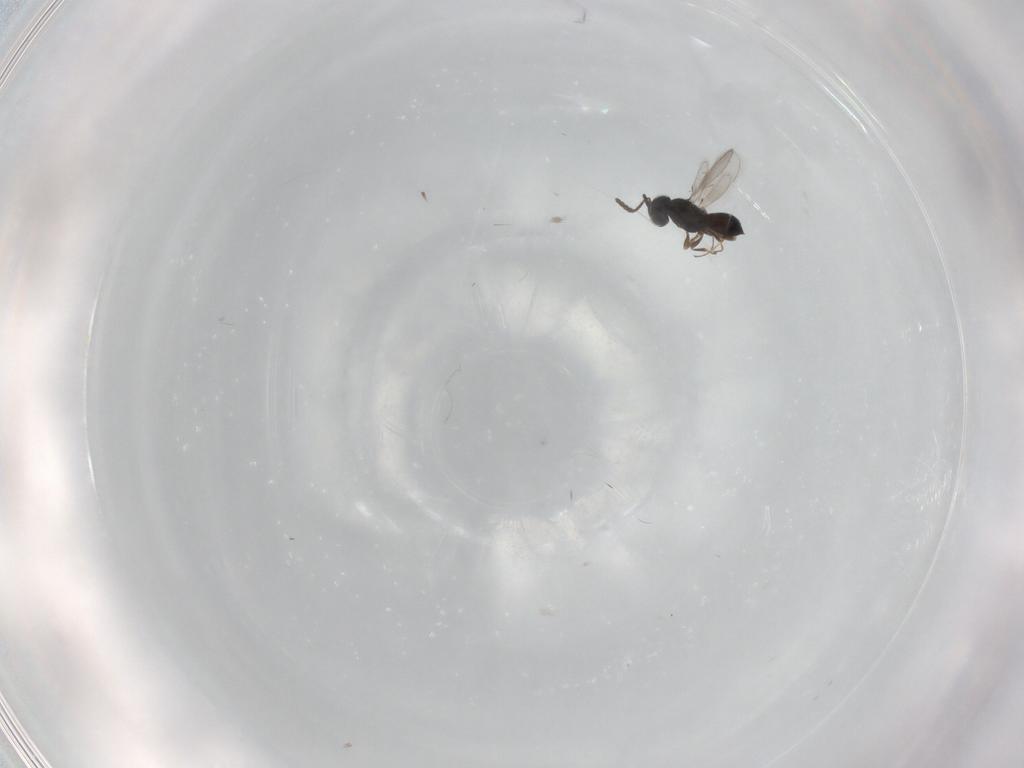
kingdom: Animalia
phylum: Arthropoda
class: Insecta
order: Hymenoptera
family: Scelionidae
